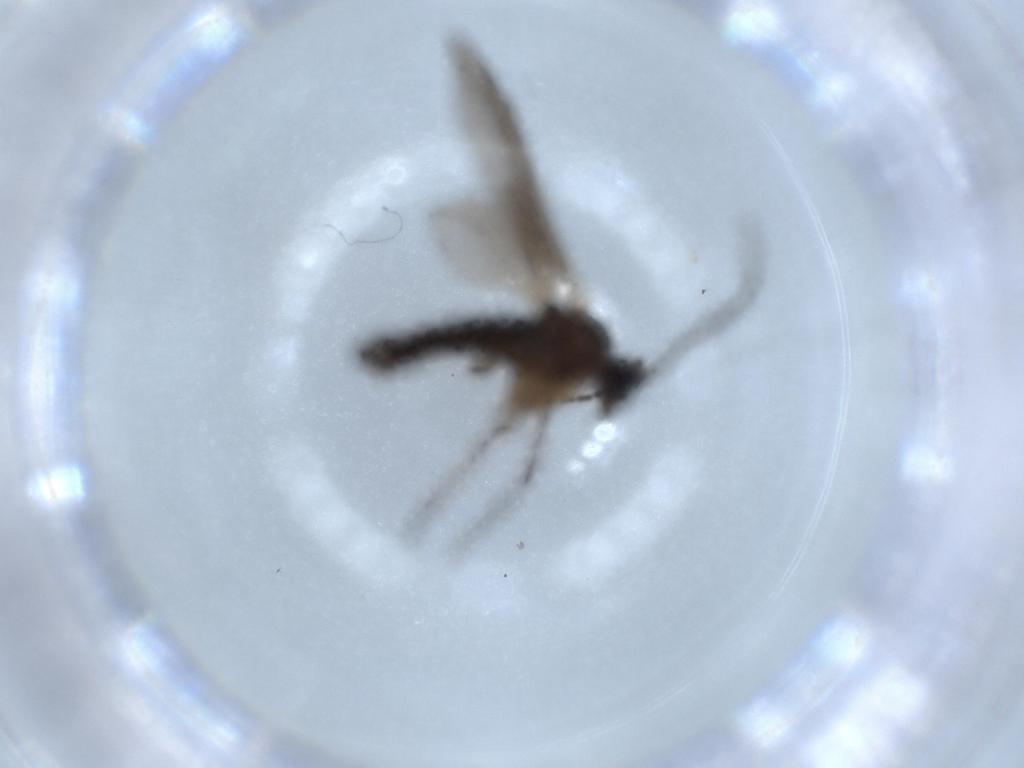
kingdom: Animalia
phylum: Arthropoda
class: Insecta
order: Diptera
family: Sciaridae
